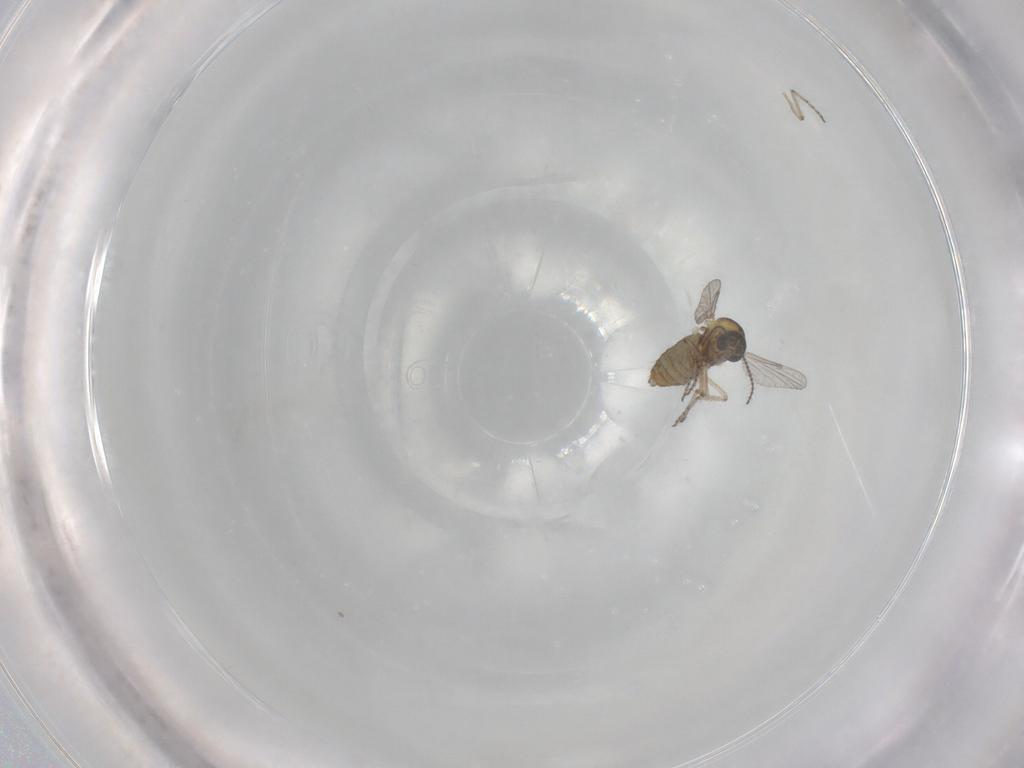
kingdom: Animalia
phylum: Arthropoda
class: Insecta
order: Diptera
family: Ceratopogonidae
